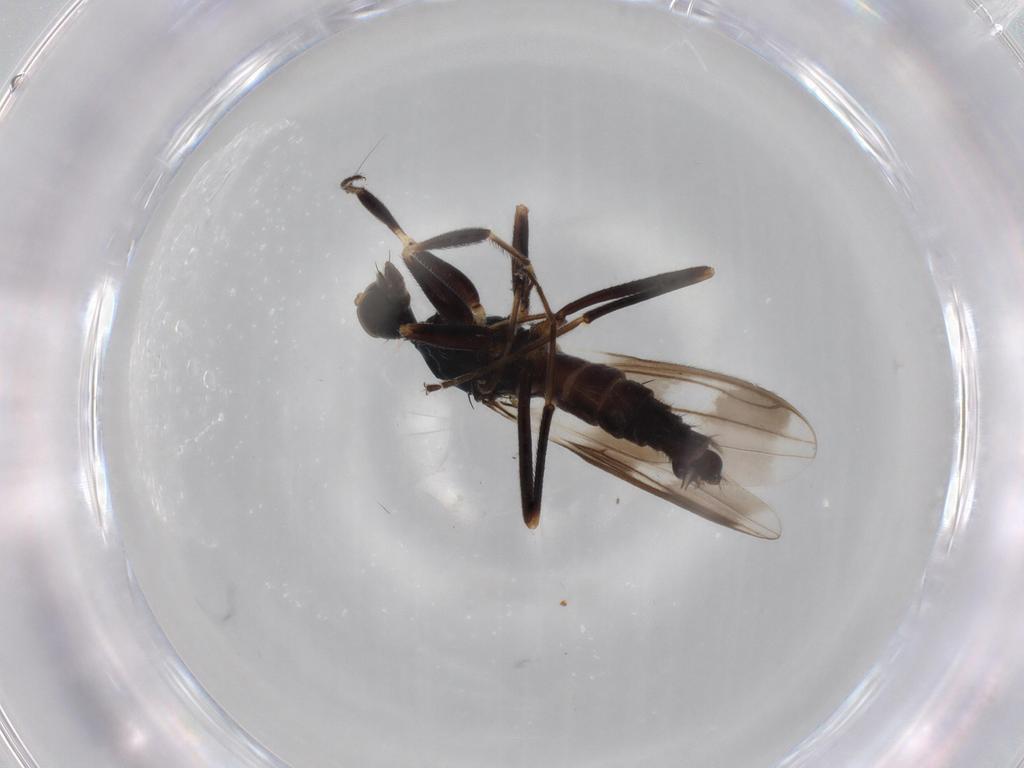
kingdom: Animalia
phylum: Arthropoda
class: Insecta
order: Diptera
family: Hybotidae
